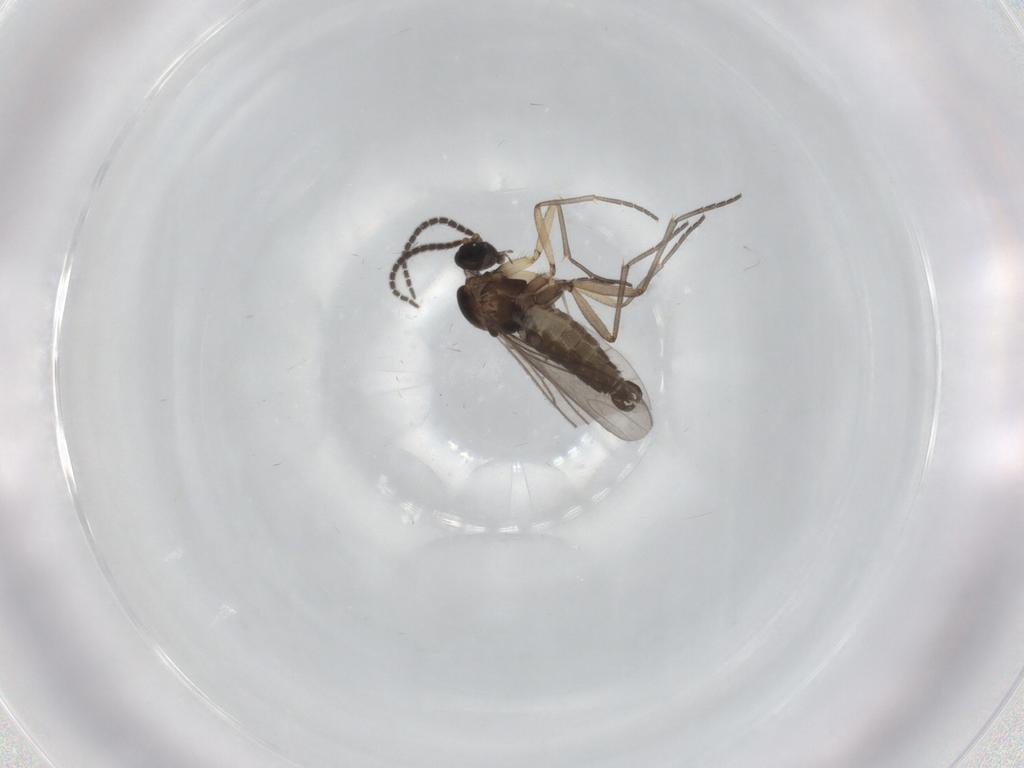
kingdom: Animalia
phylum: Arthropoda
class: Insecta
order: Diptera
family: Sciaridae
